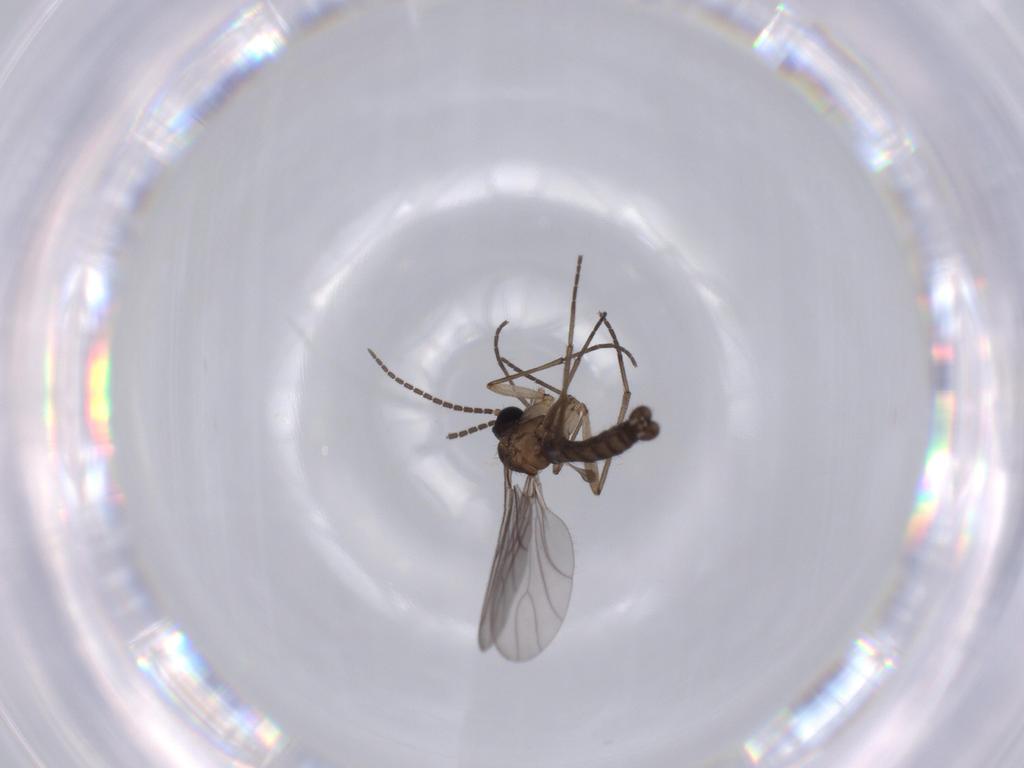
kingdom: Animalia
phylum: Arthropoda
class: Insecta
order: Diptera
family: Sciaridae
